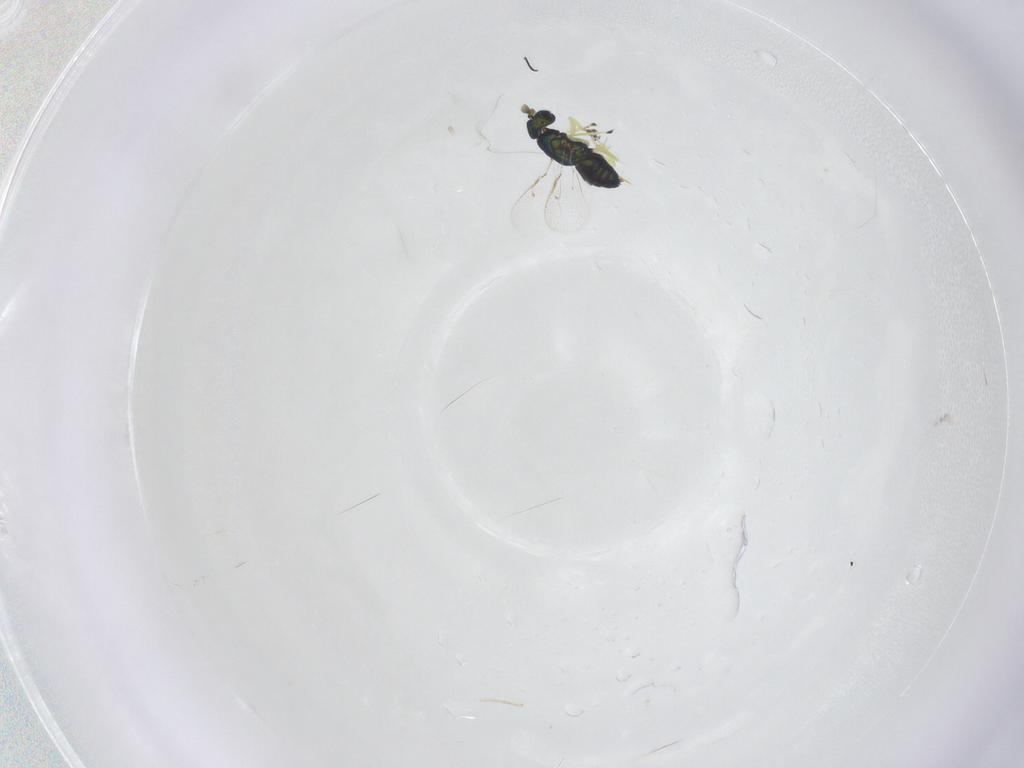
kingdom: Animalia
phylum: Arthropoda
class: Insecta
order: Hymenoptera
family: Eulophidae
